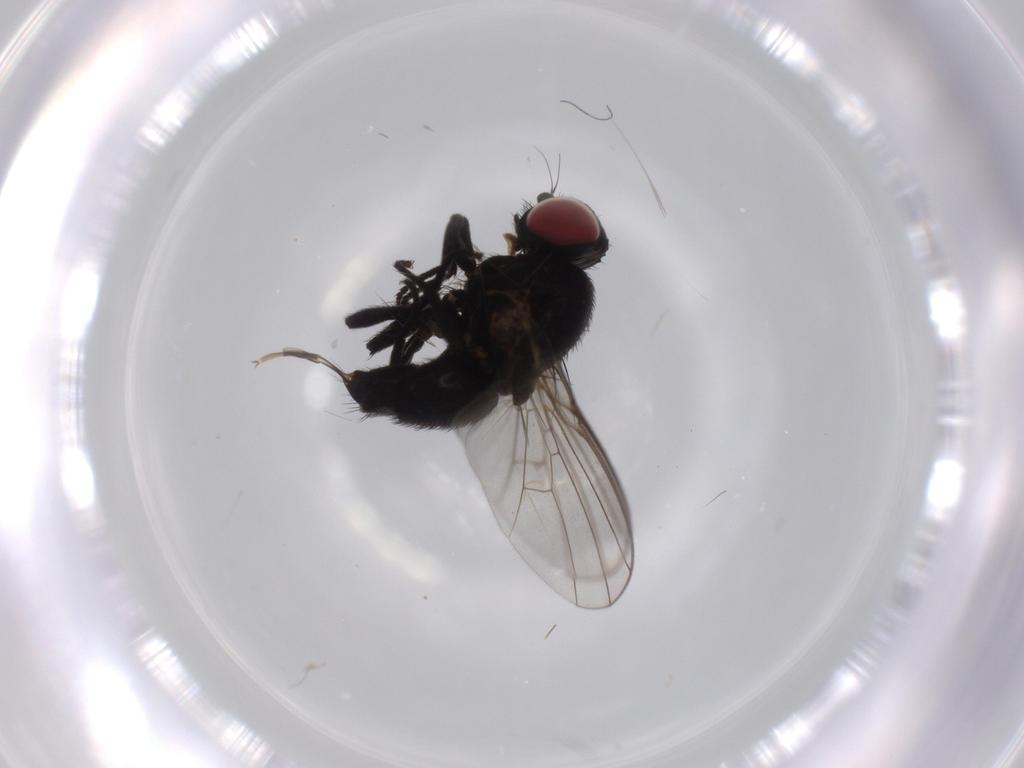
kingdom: Animalia
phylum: Arthropoda
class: Insecta
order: Diptera
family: Agromyzidae
